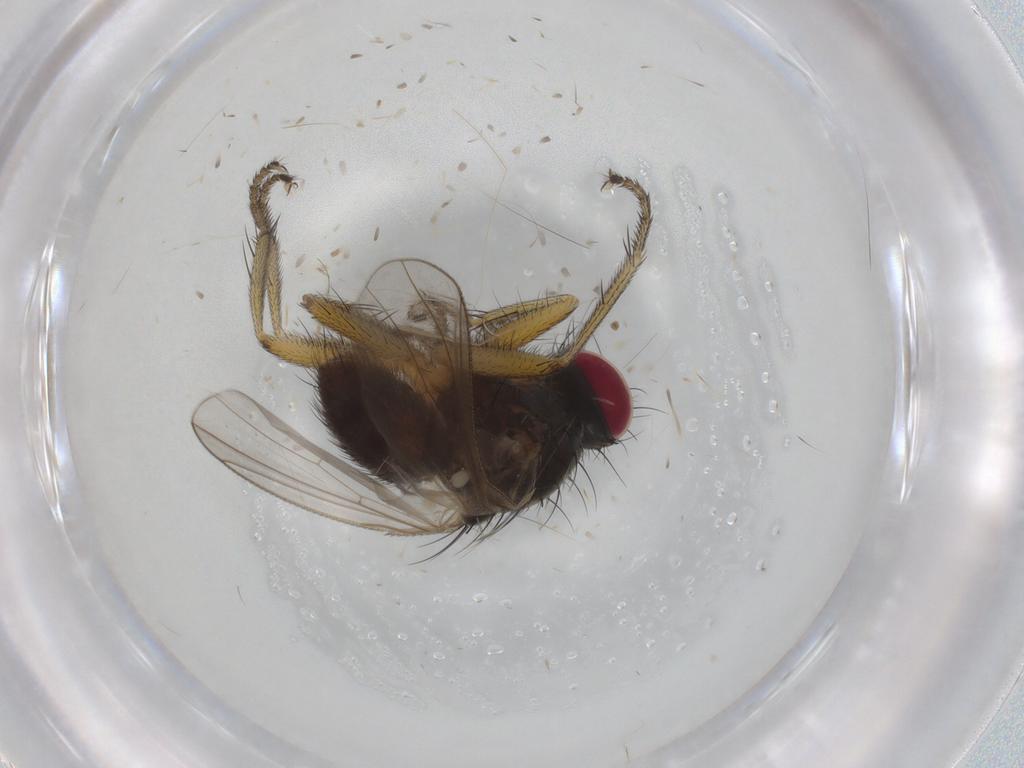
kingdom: Animalia
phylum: Arthropoda
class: Insecta
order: Diptera
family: Muscidae
